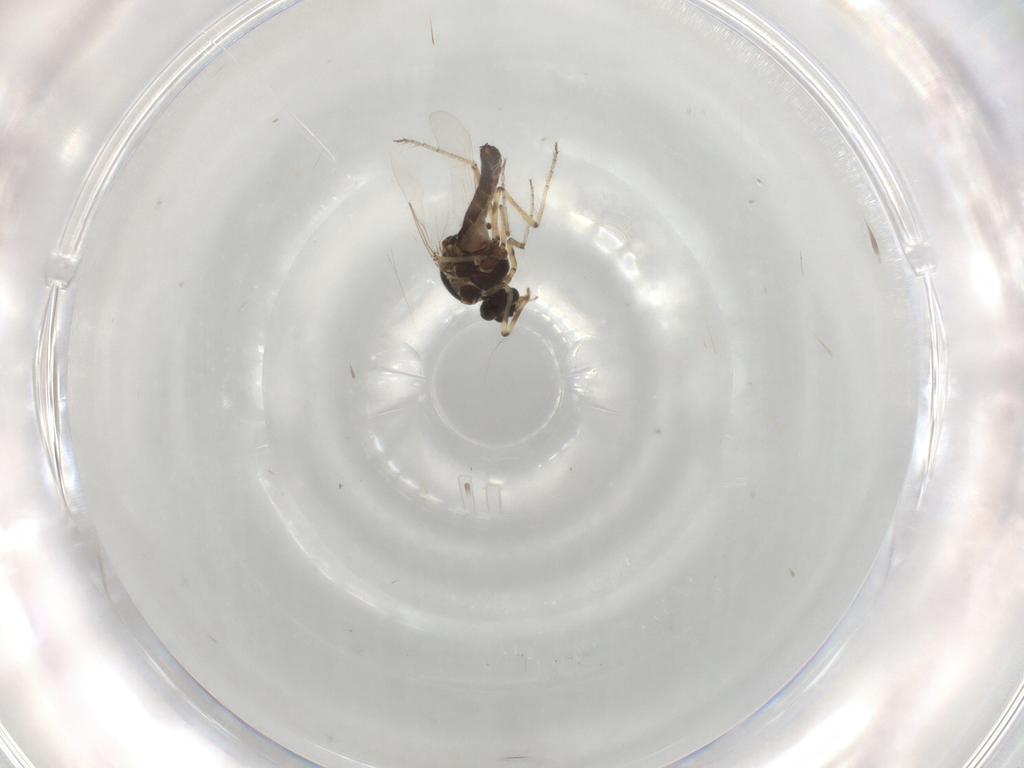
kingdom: Animalia
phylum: Arthropoda
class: Insecta
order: Diptera
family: Ceratopogonidae
